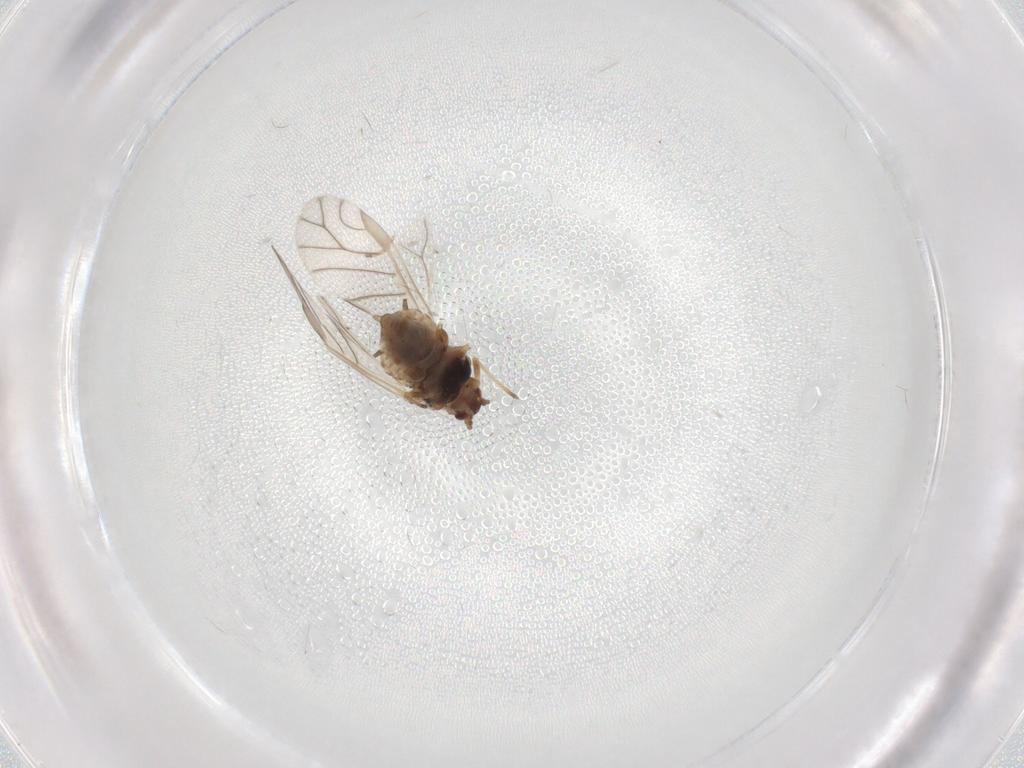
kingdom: Animalia
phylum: Arthropoda
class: Insecta
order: Hemiptera
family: Aphididae
